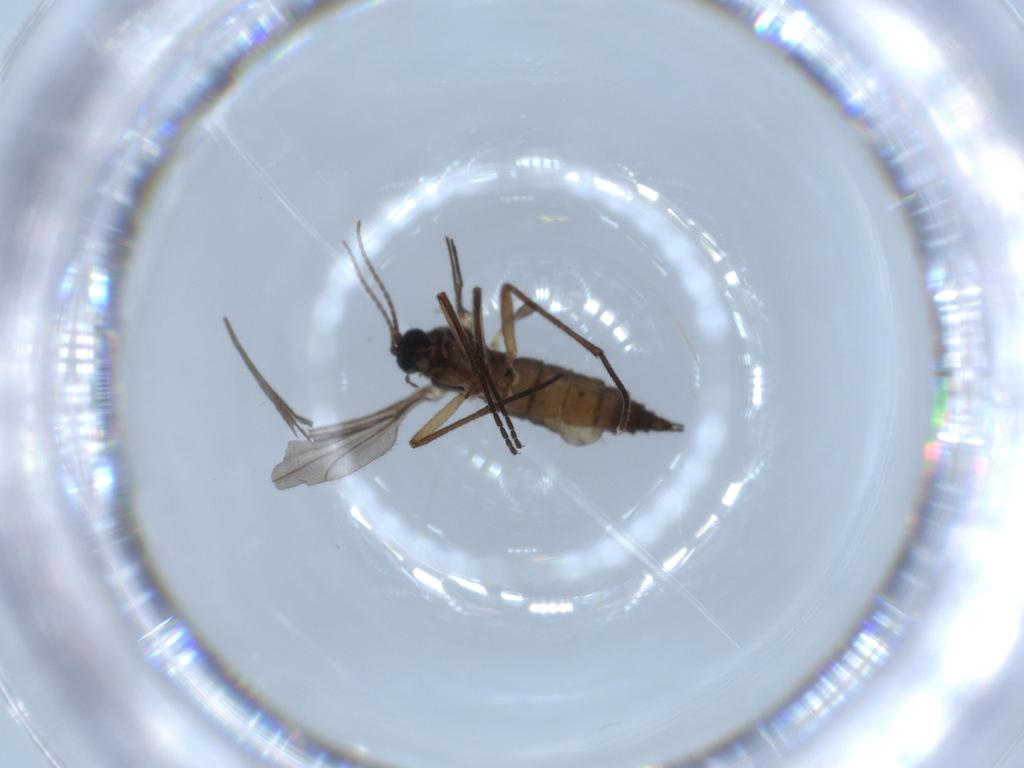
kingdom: Animalia
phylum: Arthropoda
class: Insecta
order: Diptera
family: Sciaridae
